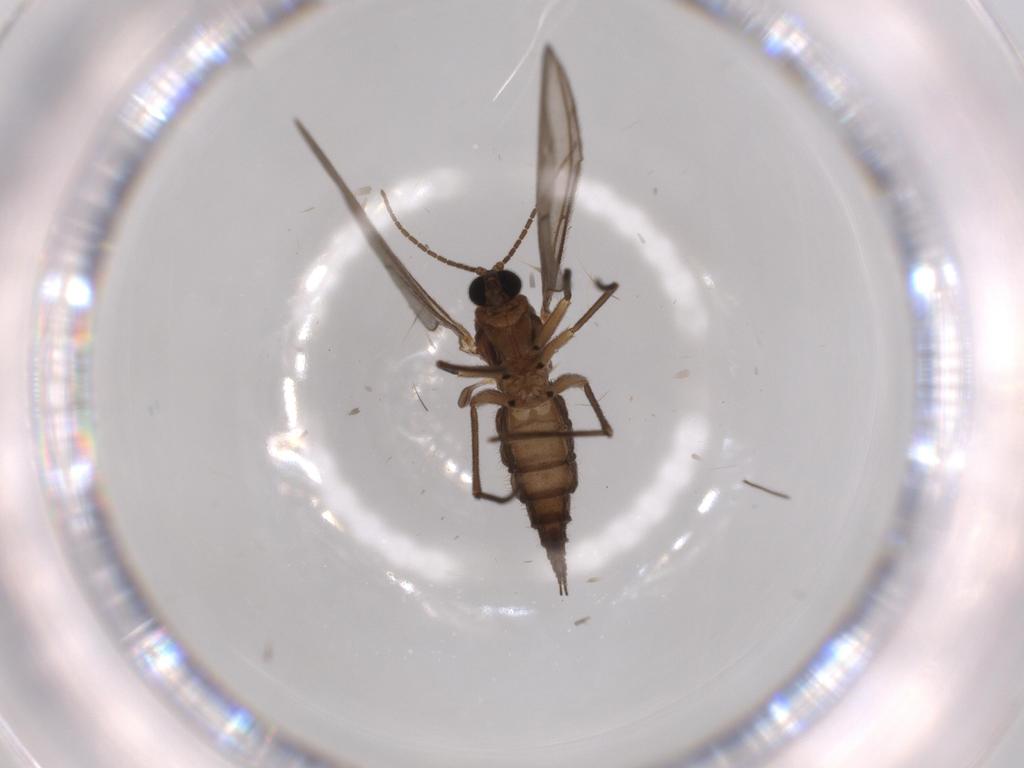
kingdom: Animalia
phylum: Arthropoda
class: Insecta
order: Diptera
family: Sciaridae
